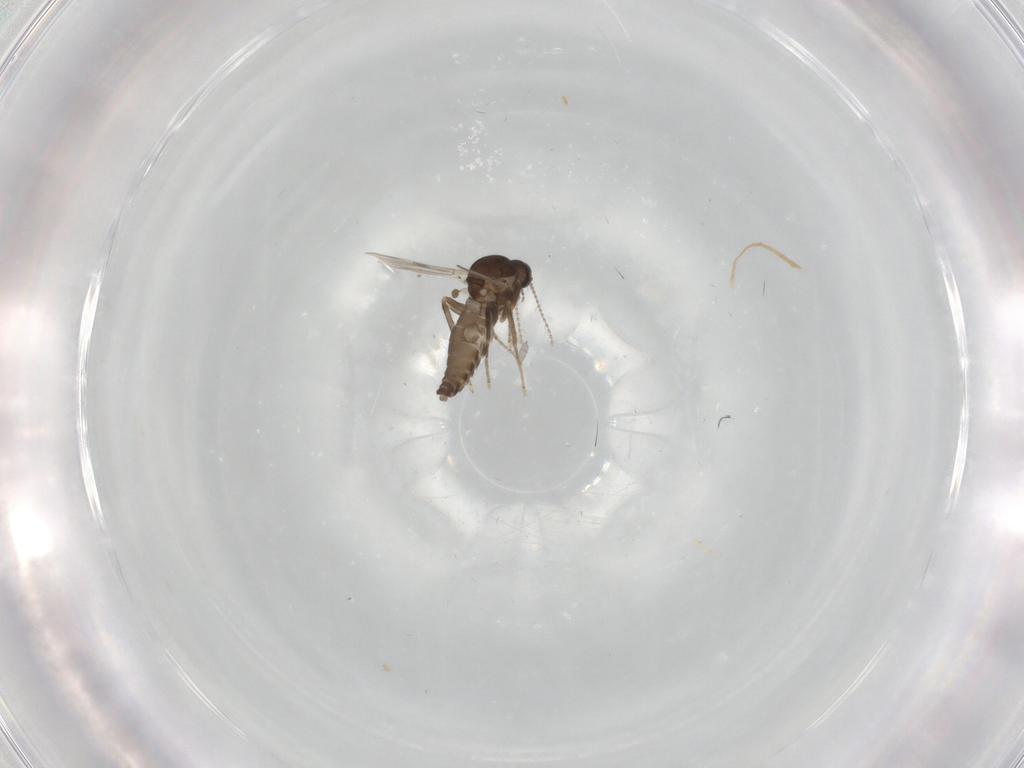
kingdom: Animalia
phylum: Arthropoda
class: Insecta
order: Diptera
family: Ceratopogonidae
